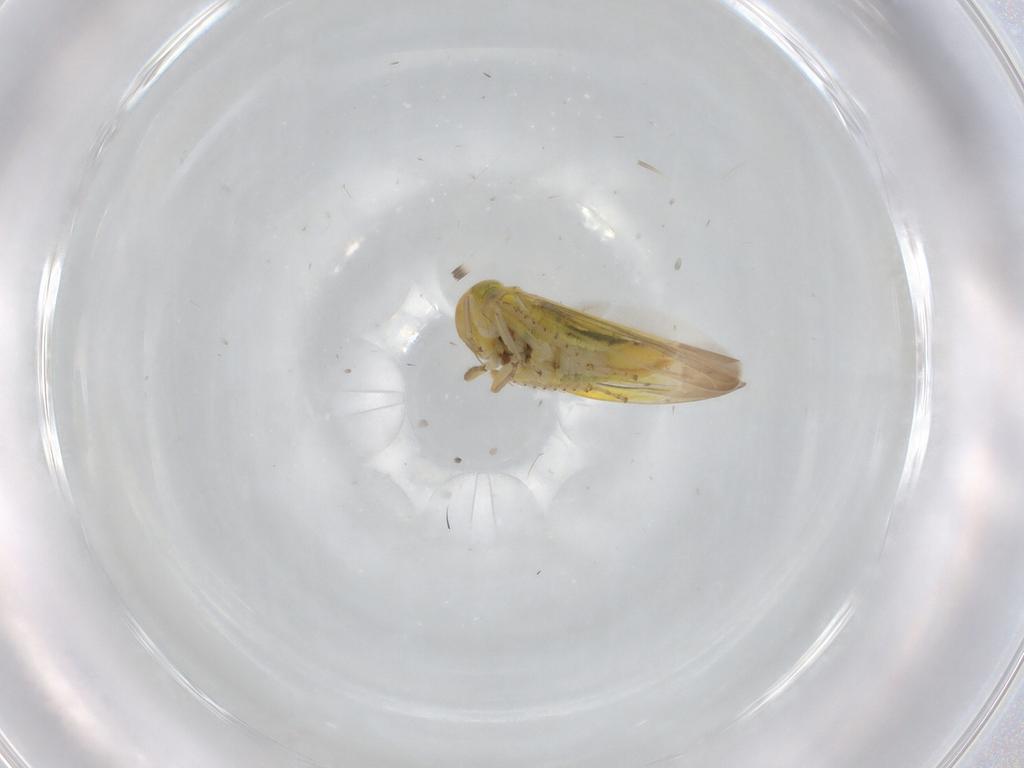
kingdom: Animalia
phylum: Arthropoda
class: Insecta
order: Hemiptera
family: Cicadellidae
